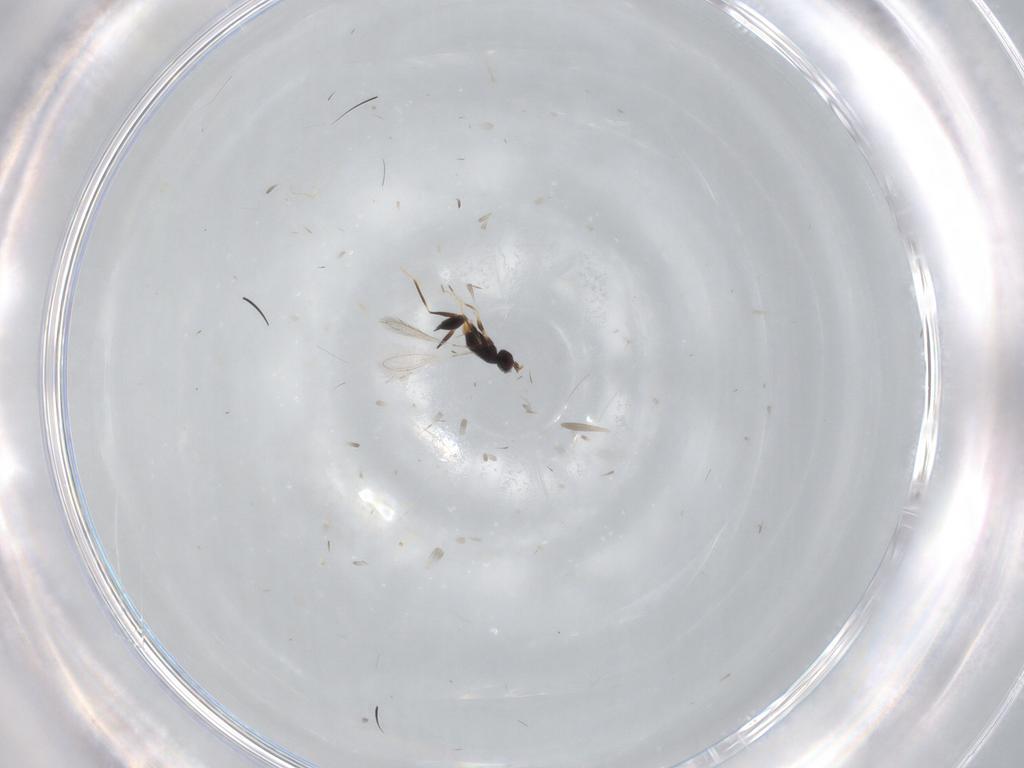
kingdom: Animalia
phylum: Arthropoda
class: Insecta
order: Hymenoptera
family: Mymaridae
